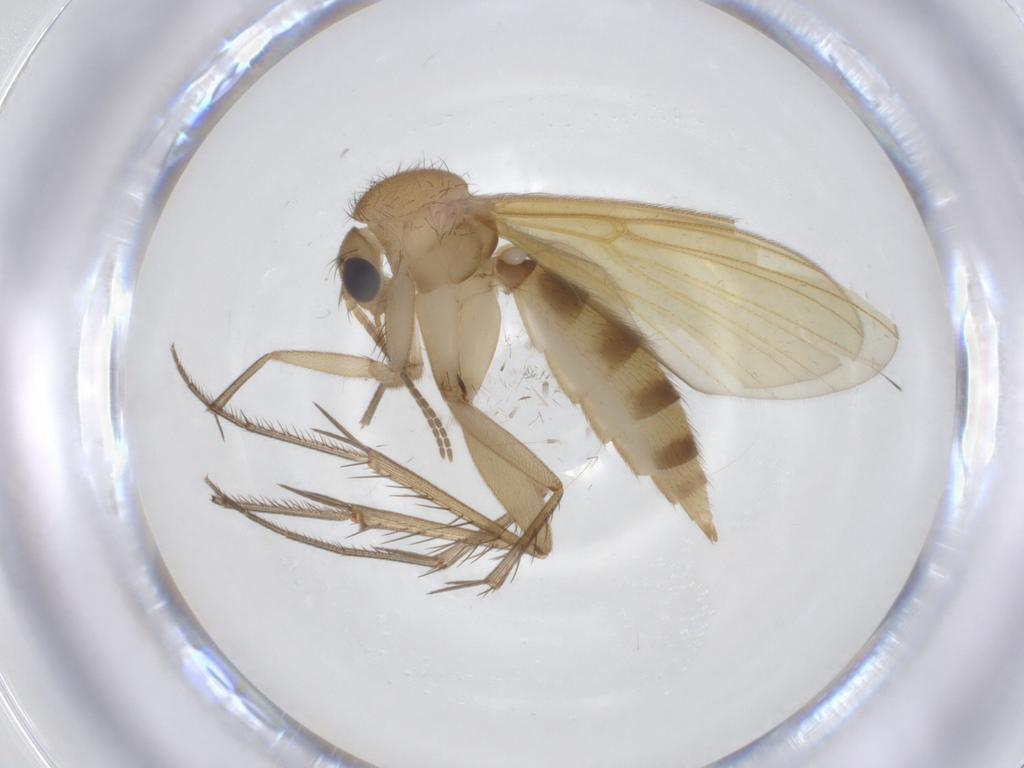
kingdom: Animalia
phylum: Arthropoda
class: Insecta
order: Diptera
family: Mycetophilidae
